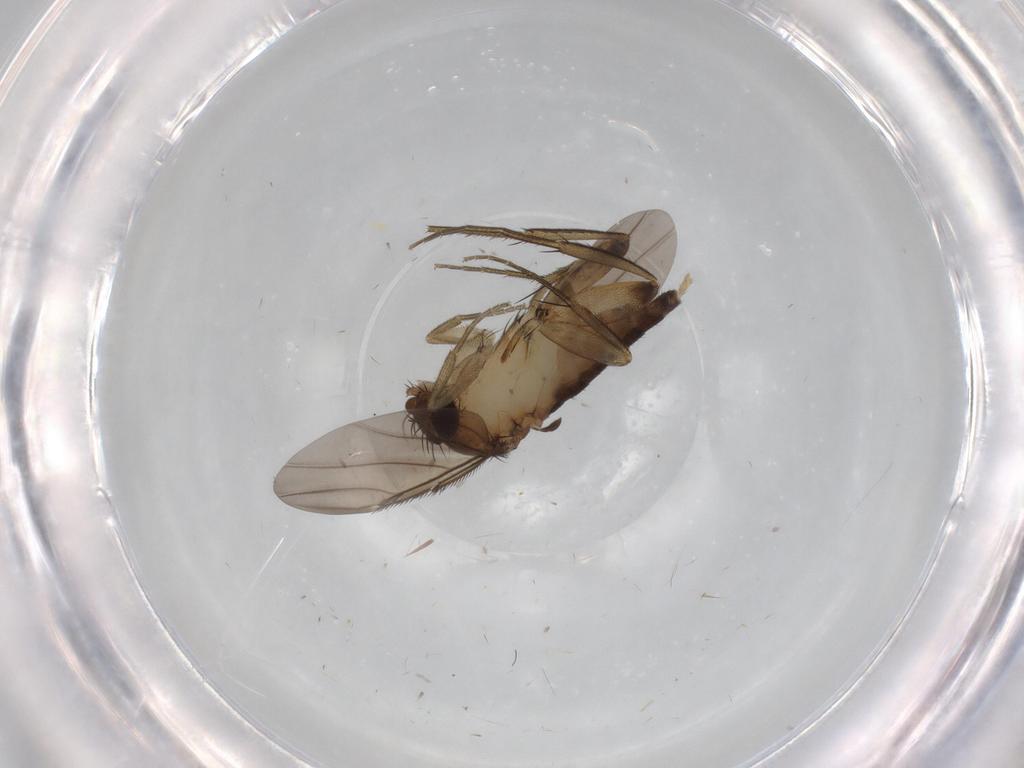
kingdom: Animalia
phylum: Arthropoda
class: Insecta
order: Diptera
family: Phoridae
